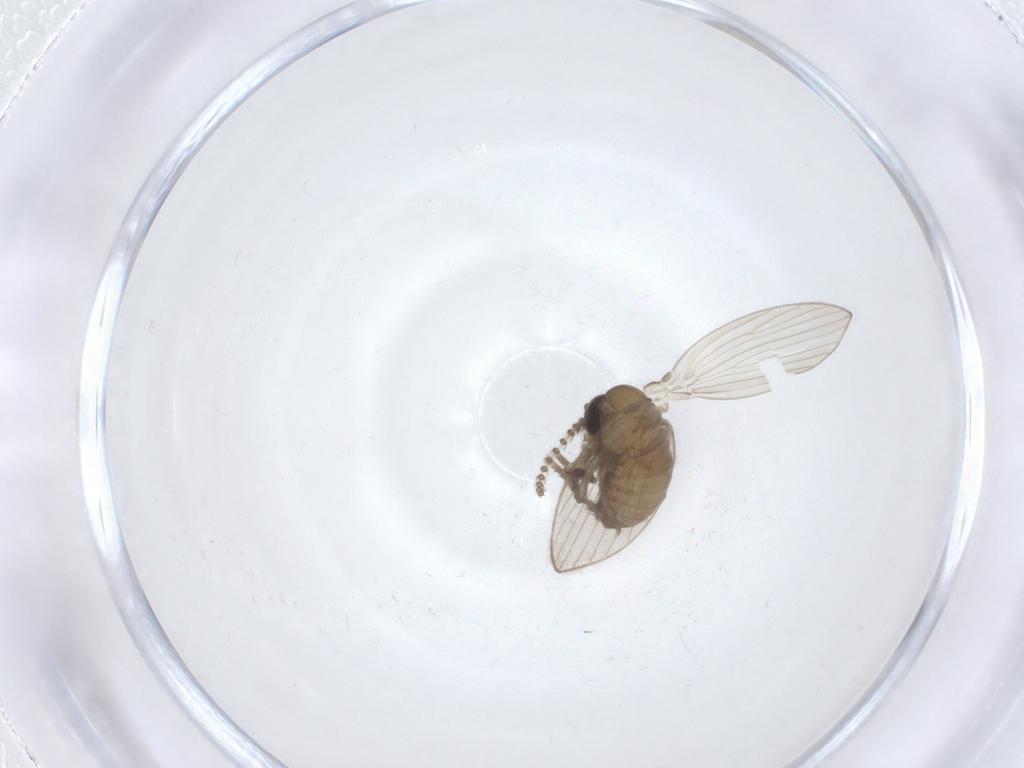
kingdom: Animalia
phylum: Arthropoda
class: Insecta
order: Diptera
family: Psychodidae
